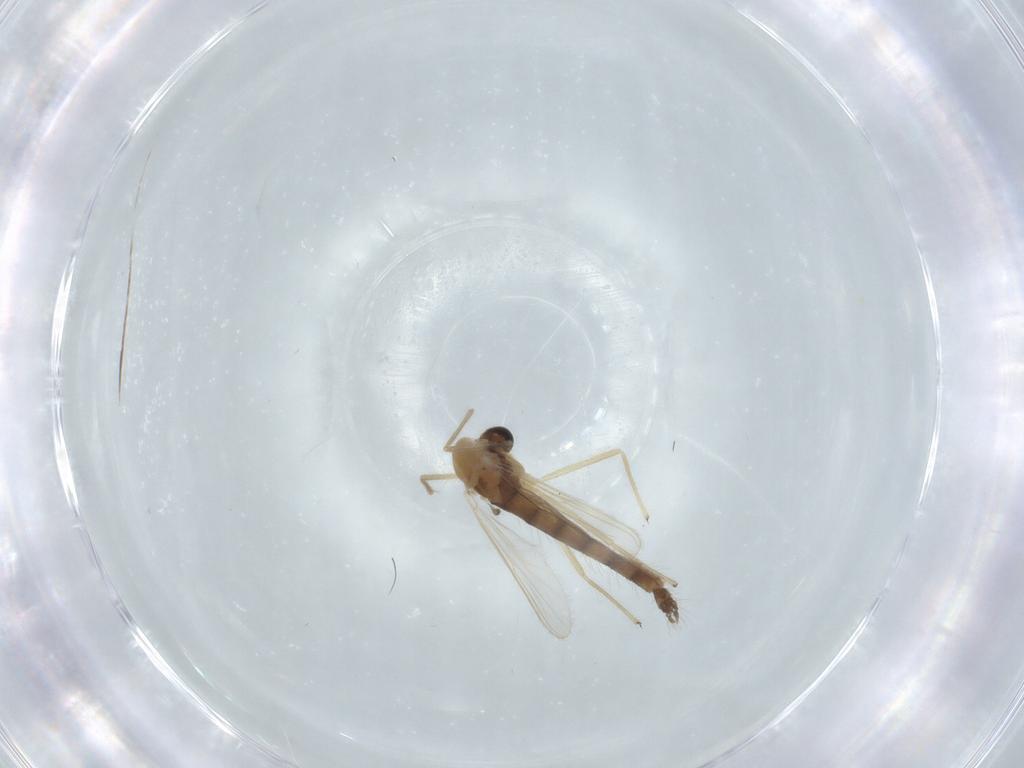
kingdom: Animalia
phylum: Arthropoda
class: Insecta
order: Diptera
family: Chironomidae
